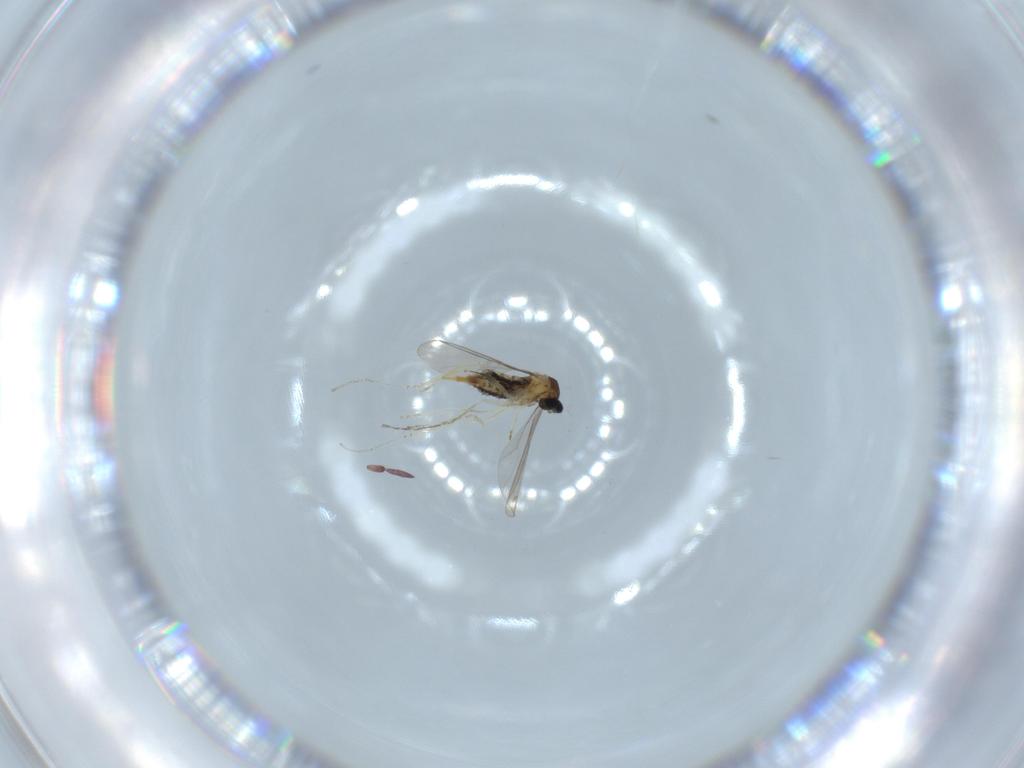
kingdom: Animalia
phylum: Arthropoda
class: Insecta
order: Diptera
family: Cecidomyiidae
